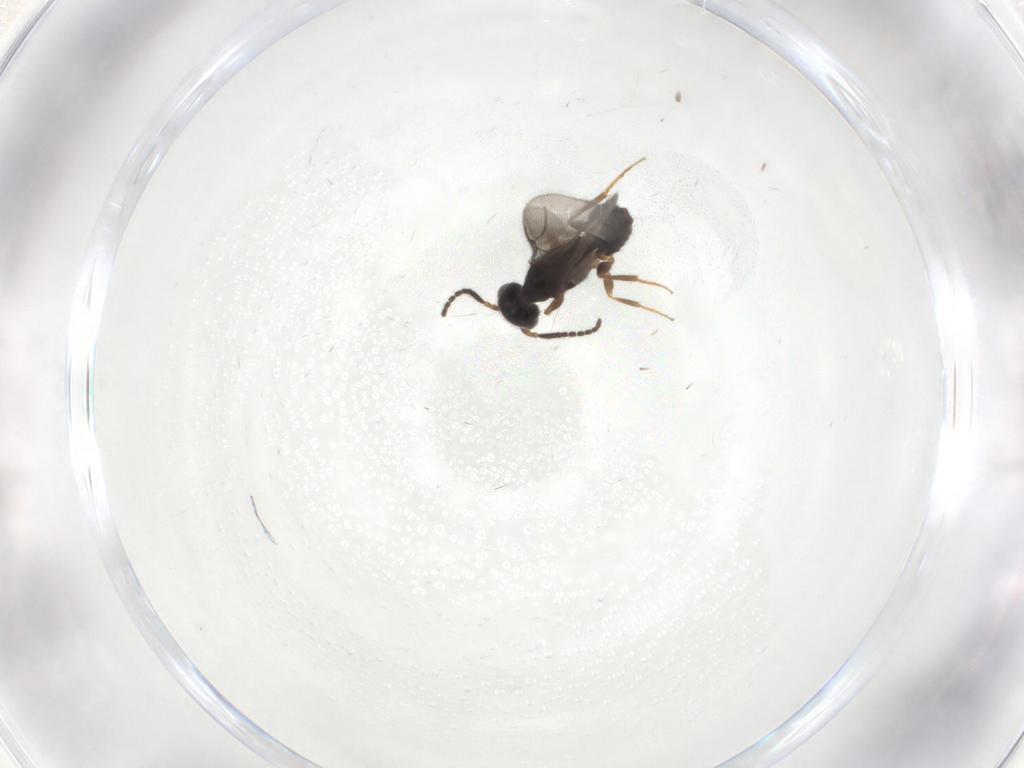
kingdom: Animalia
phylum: Arthropoda
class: Insecta
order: Hymenoptera
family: Bethylidae
